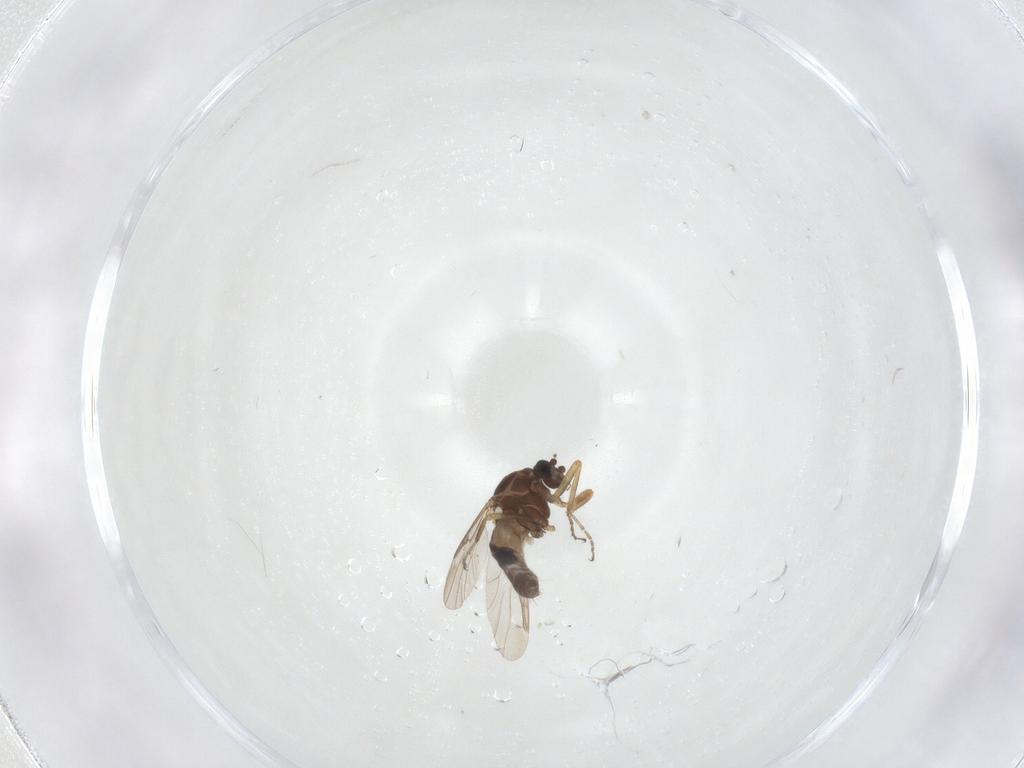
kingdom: Animalia
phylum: Arthropoda
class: Insecta
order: Diptera
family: Ceratopogonidae
